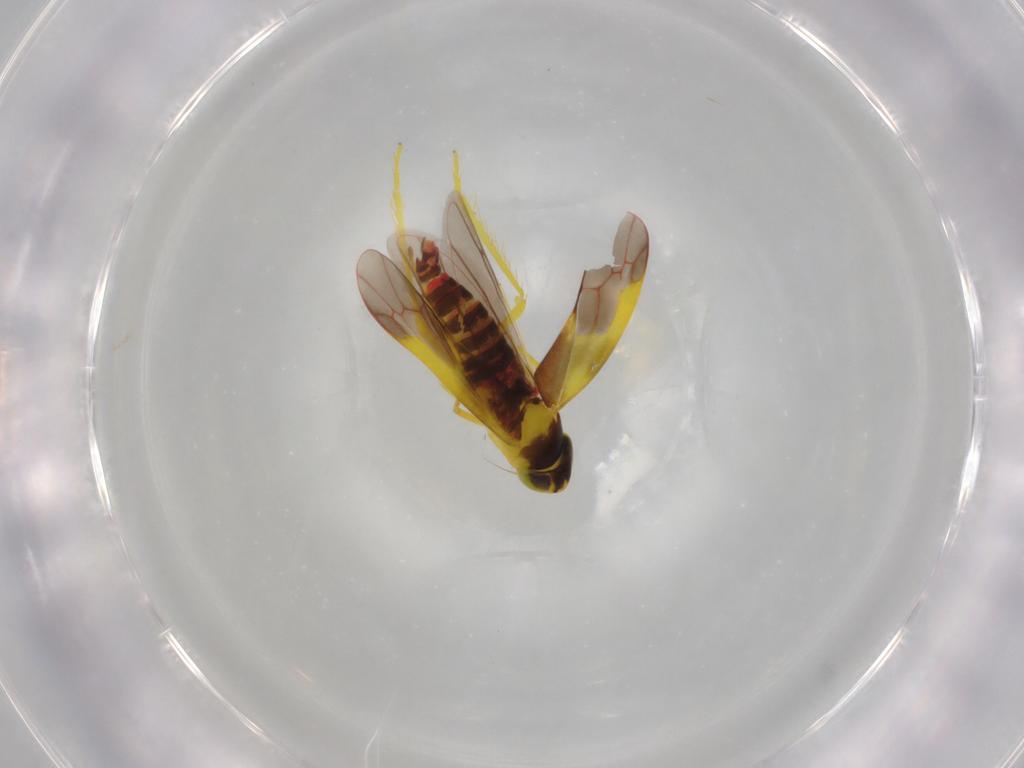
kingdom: Animalia
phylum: Arthropoda
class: Insecta
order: Hemiptera
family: Cicadellidae
